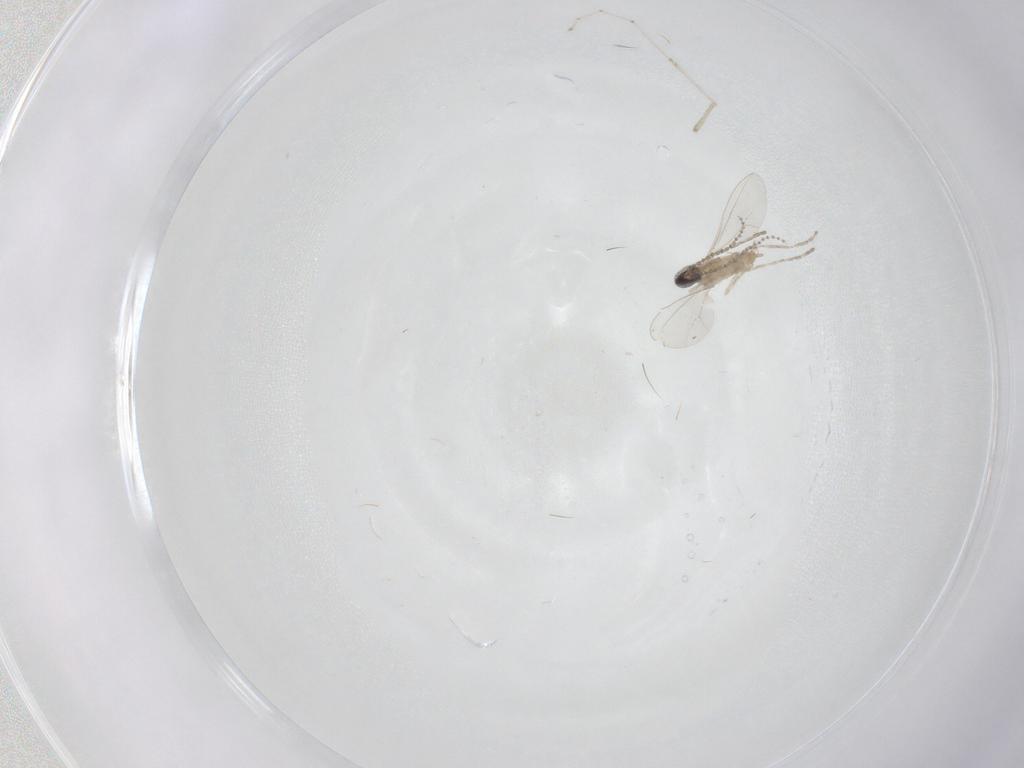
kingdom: Animalia
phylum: Arthropoda
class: Insecta
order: Diptera
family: Cecidomyiidae
